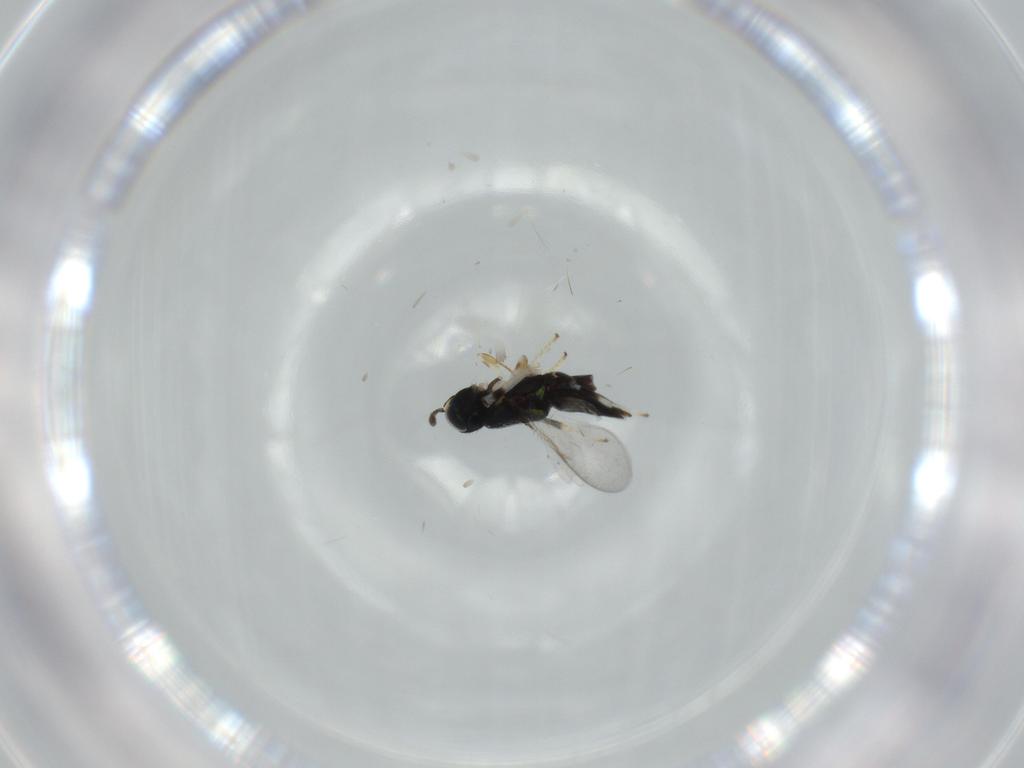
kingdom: Animalia
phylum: Arthropoda
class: Insecta
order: Hymenoptera
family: Encyrtidae
